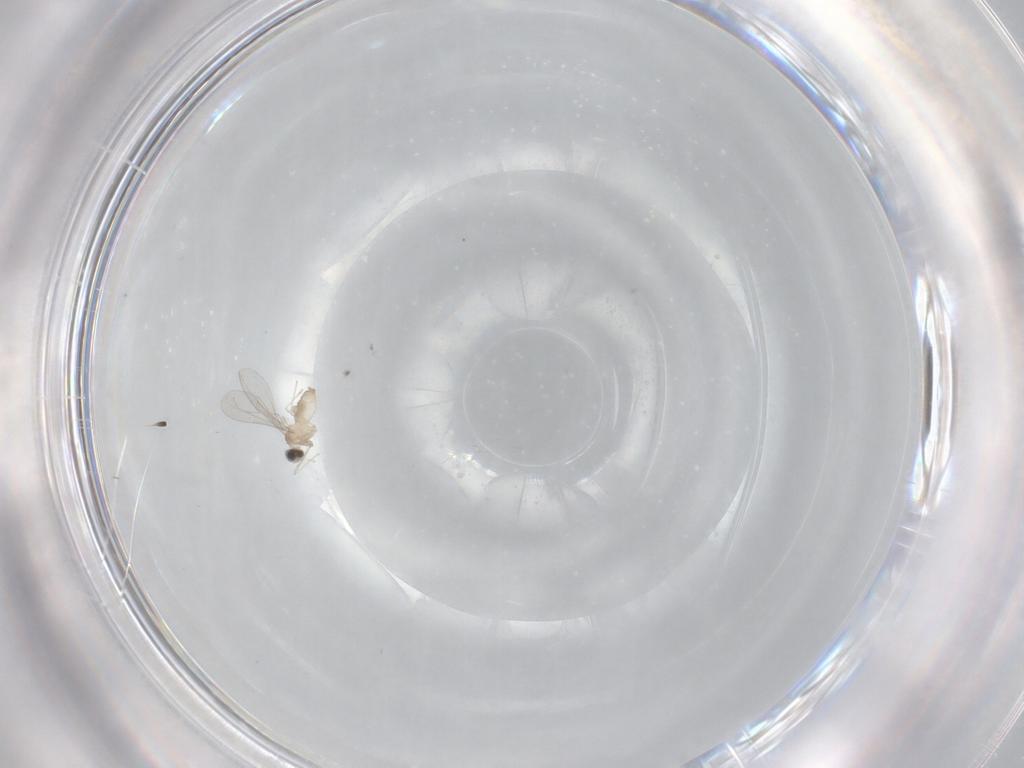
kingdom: Animalia
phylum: Arthropoda
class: Insecta
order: Diptera
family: Cecidomyiidae
